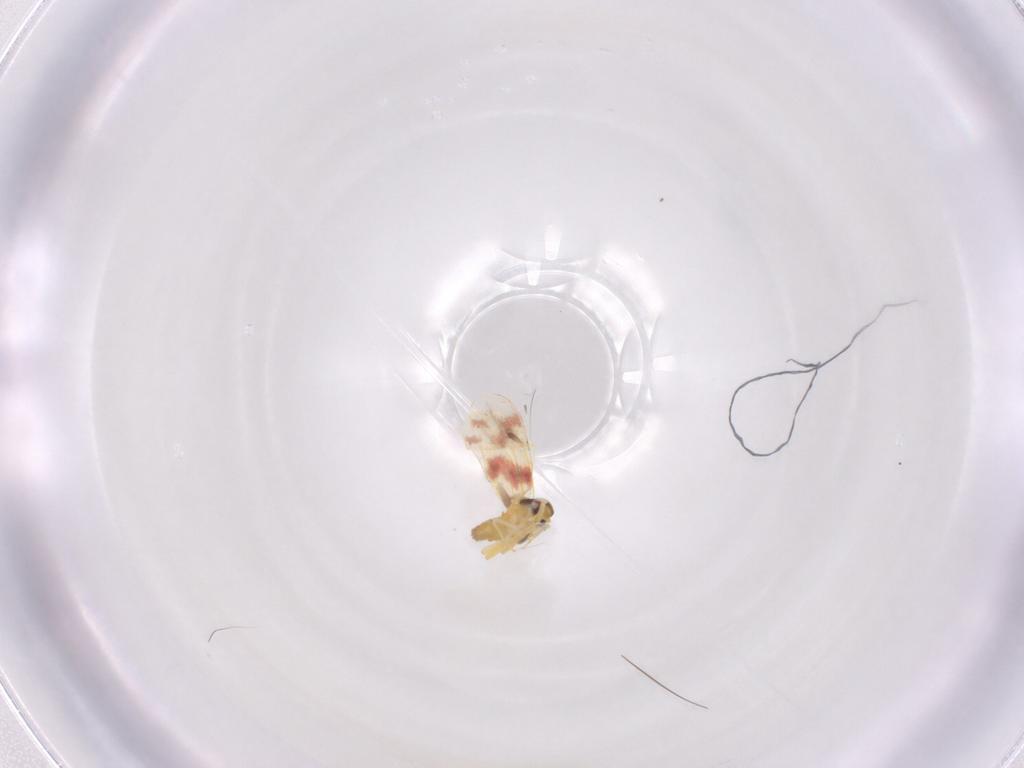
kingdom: Animalia
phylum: Arthropoda
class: Insecta
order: Hemiptera
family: Aleyrodidae
